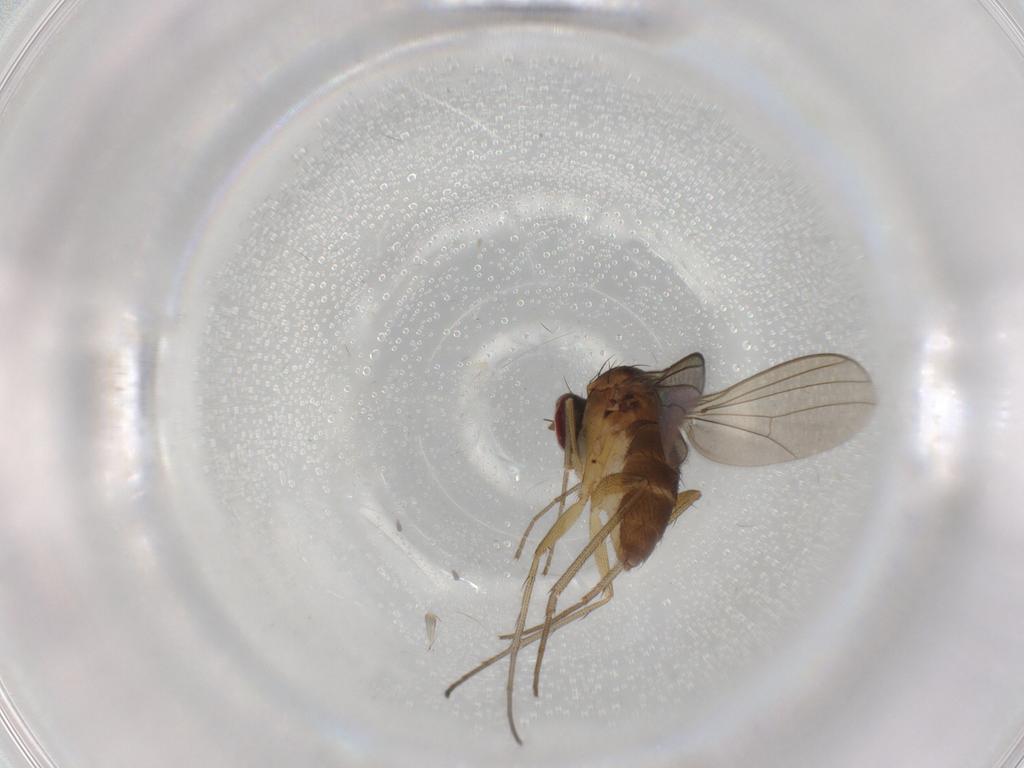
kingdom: Animalia
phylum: Arthropoda
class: Insecta
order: Diptera
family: Dolichopodidae
